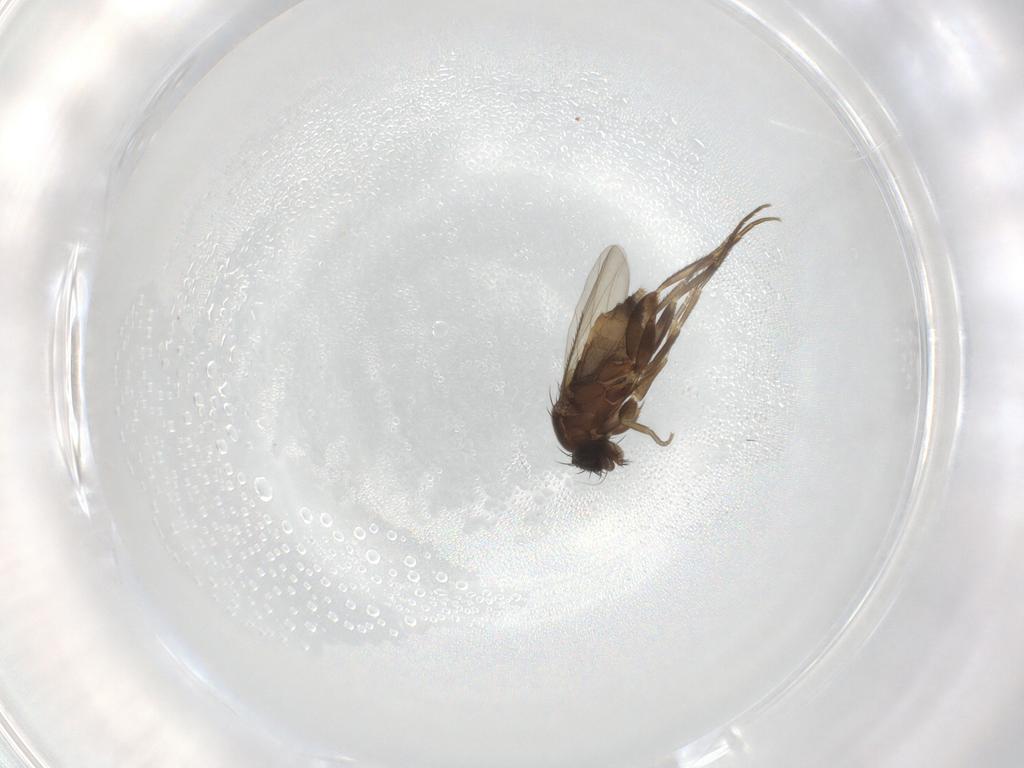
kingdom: Animalia
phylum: Arthropoda
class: Insecta
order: Diptera
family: Phoridae
